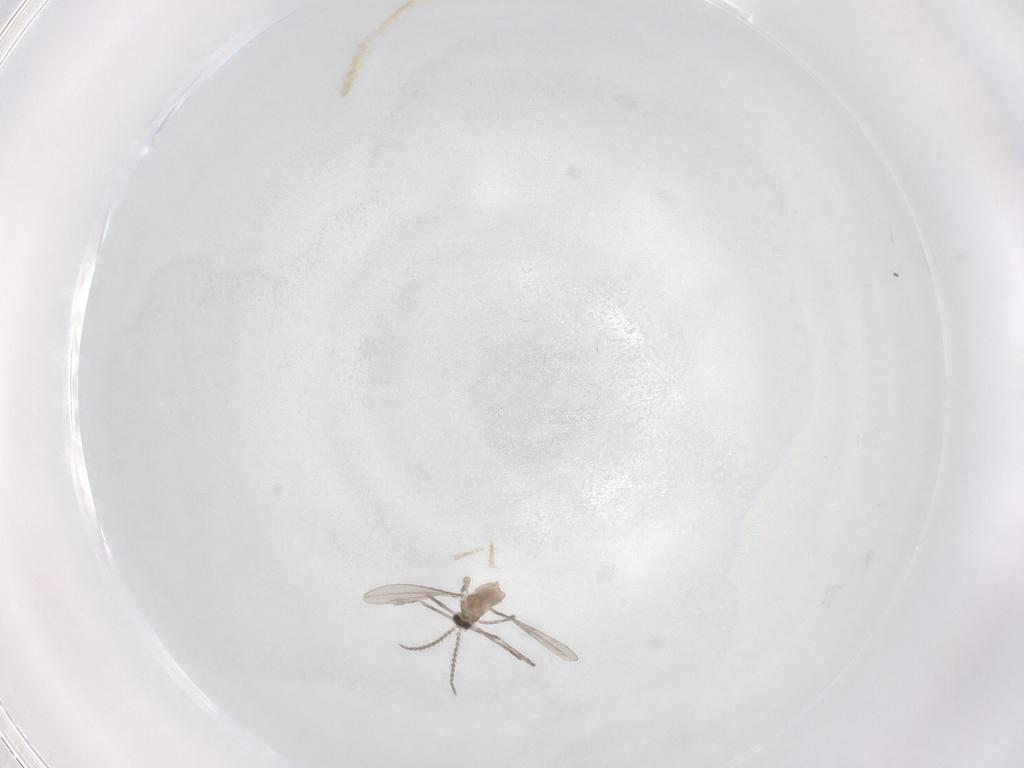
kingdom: Animalia
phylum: Arthropoda
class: Insecta
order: Diptera
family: Cecidomyiidae
